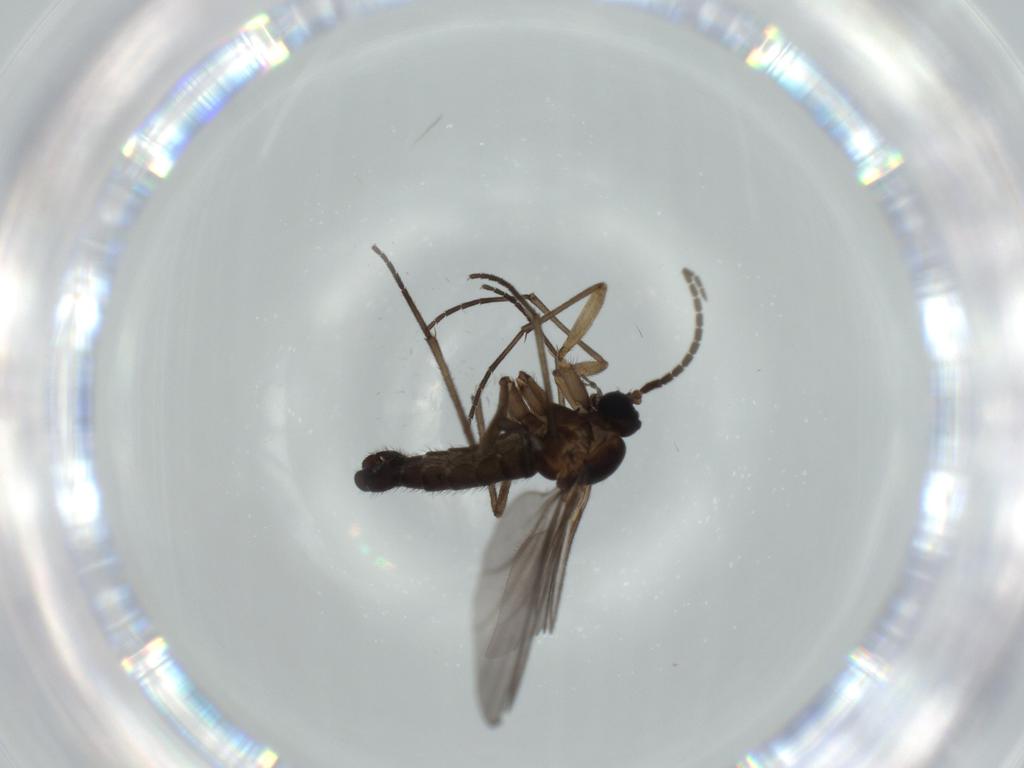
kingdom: Animalia
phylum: Arthropoda
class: Insecta
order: Diptera
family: Sciaridae
